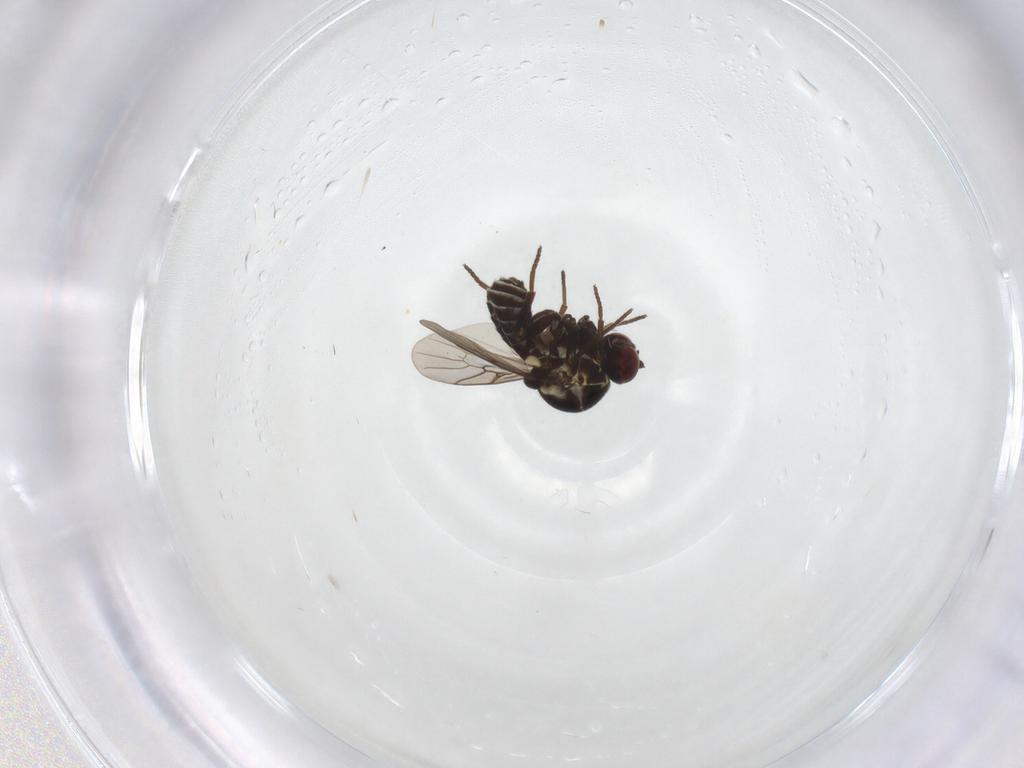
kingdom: Animalia
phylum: Arthropoda
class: Insecta
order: Diptera
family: Mythicomyiidae
